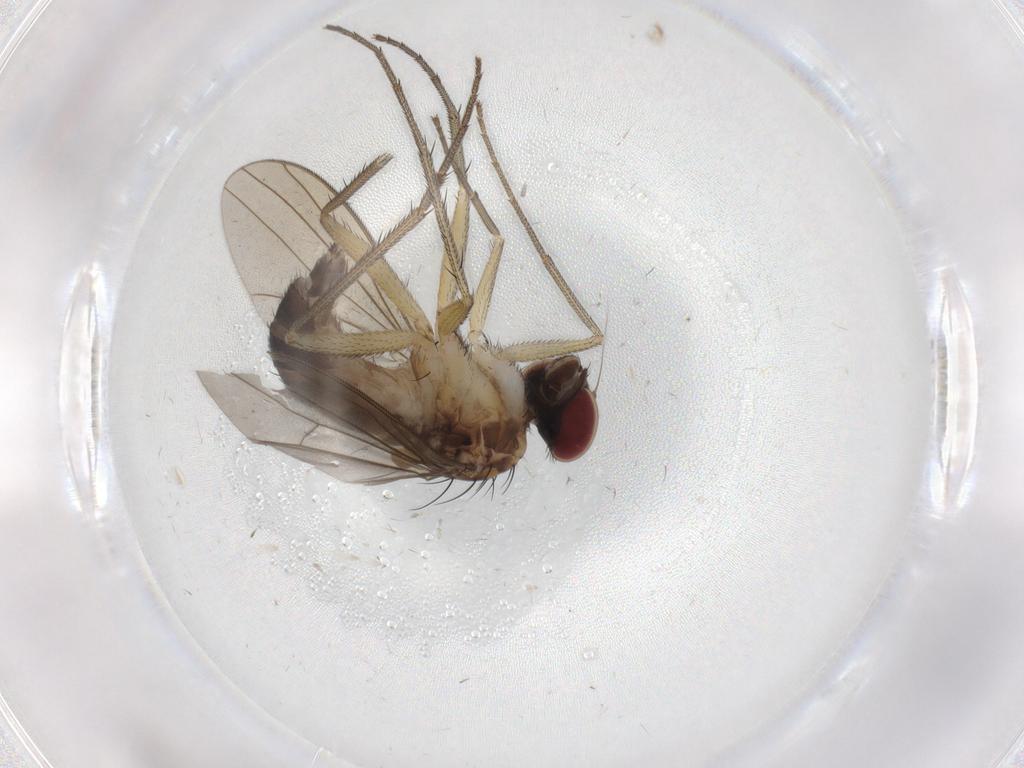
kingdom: Animalia
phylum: Arthropoda
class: Insecta
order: Diptera
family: Dolichopodidae
